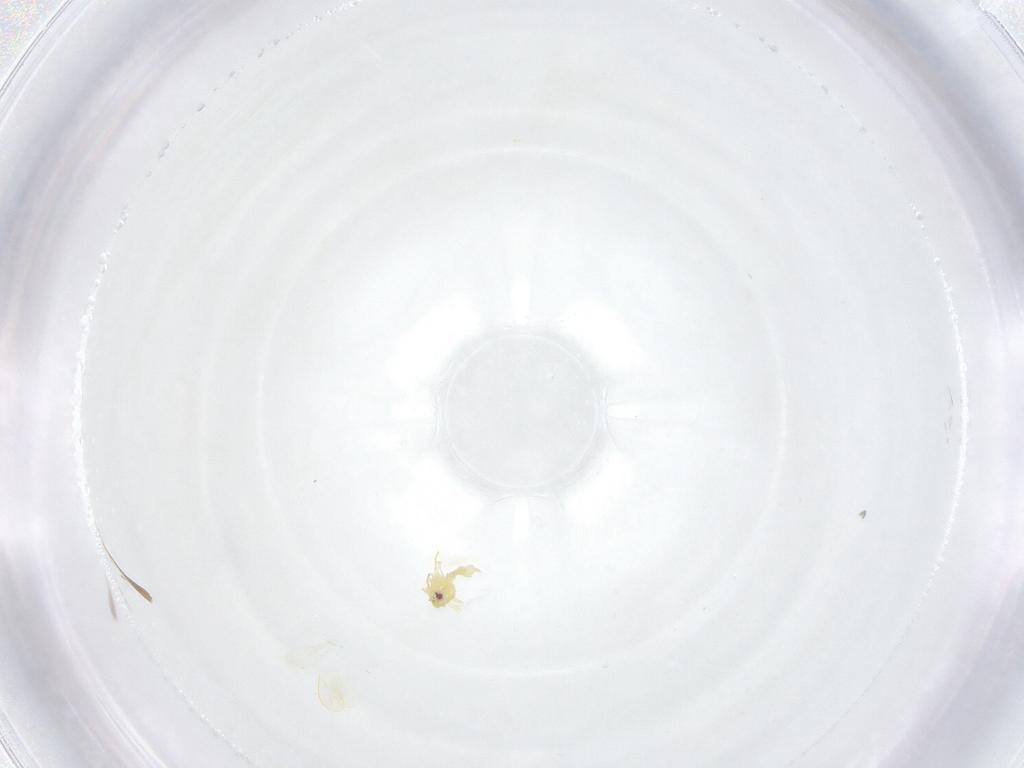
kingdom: Animalia
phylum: Arthropoda
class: Insecta
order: Hemiptera
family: Aleyrodidae
